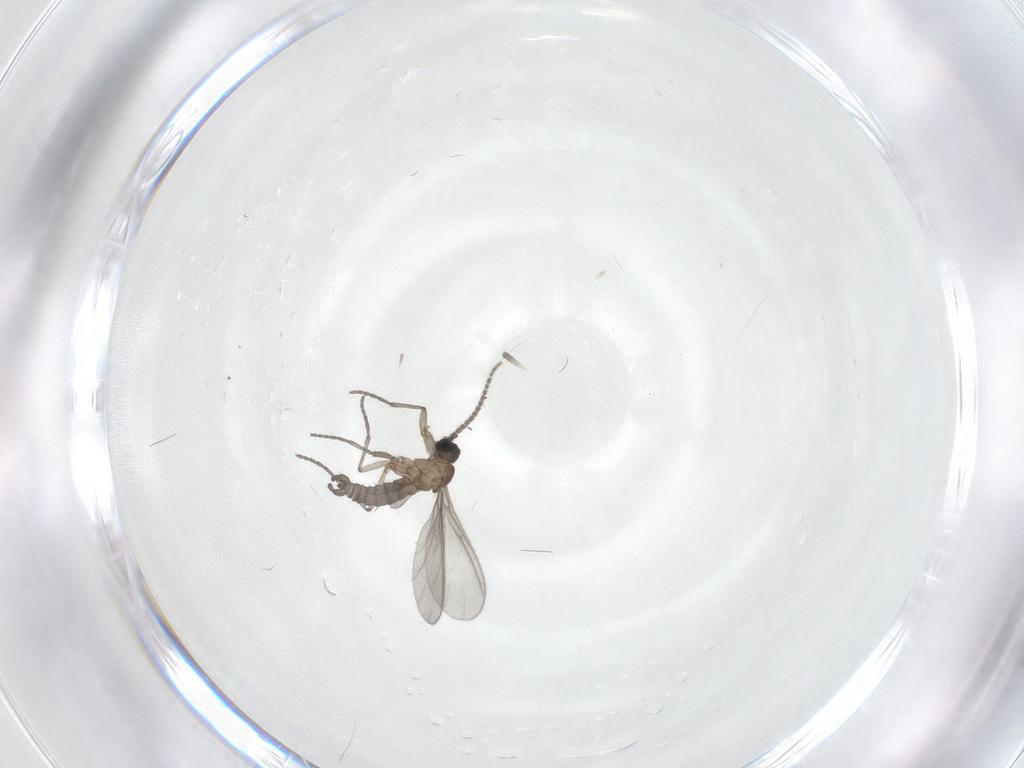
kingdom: Animalia
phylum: Arthropoda
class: Insecta
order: Diptera
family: Sciaridae
